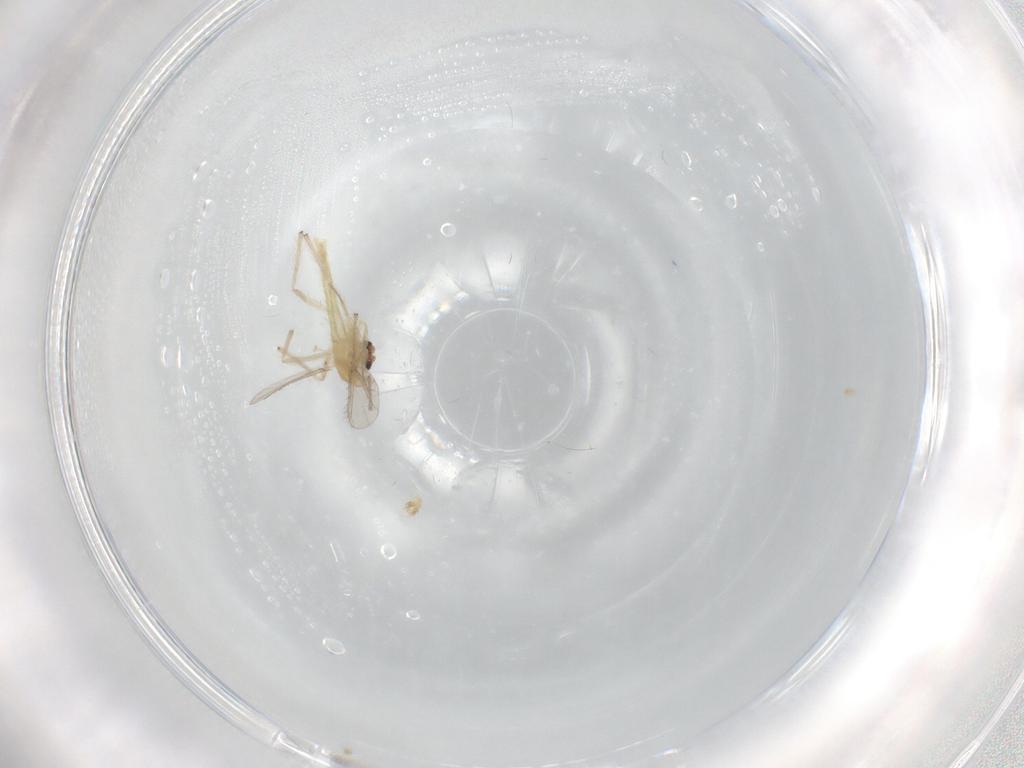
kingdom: Animalia
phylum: Arthropoda
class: Insecta
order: Diptera
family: Chironomidae
